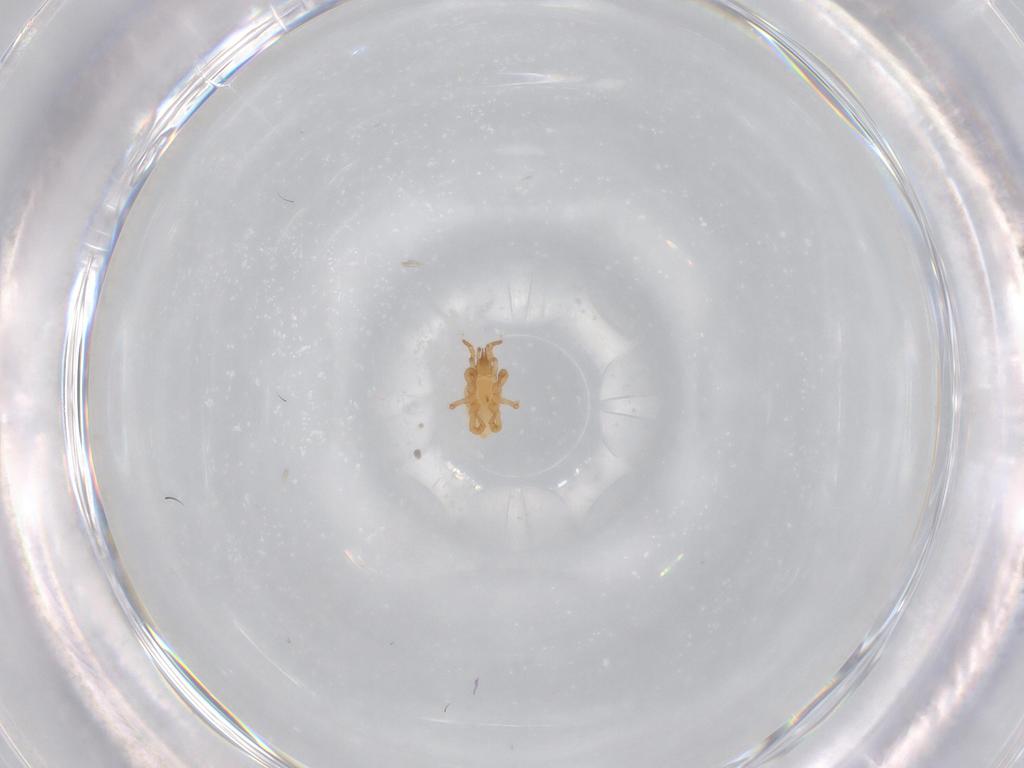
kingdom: Animalia
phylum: Arthropoda
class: Arachnida
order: Mesostigmata
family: Parasitidae
